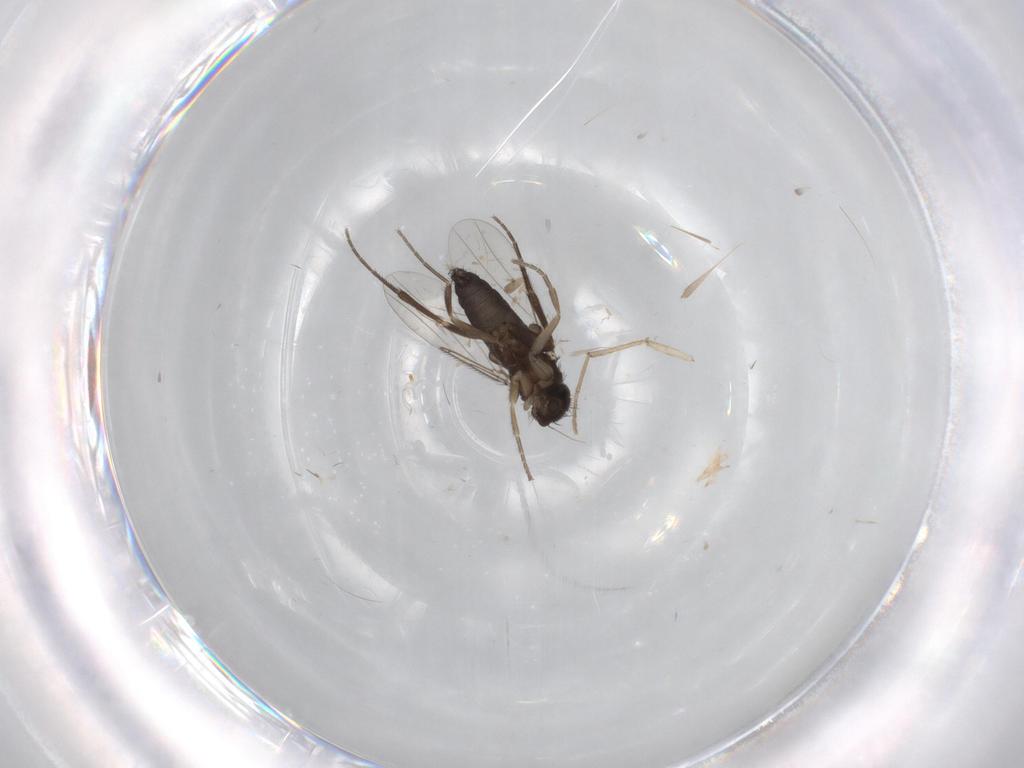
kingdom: Animalia
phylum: Arthropoda
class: Insecta
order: Diptera
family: Phoridae
